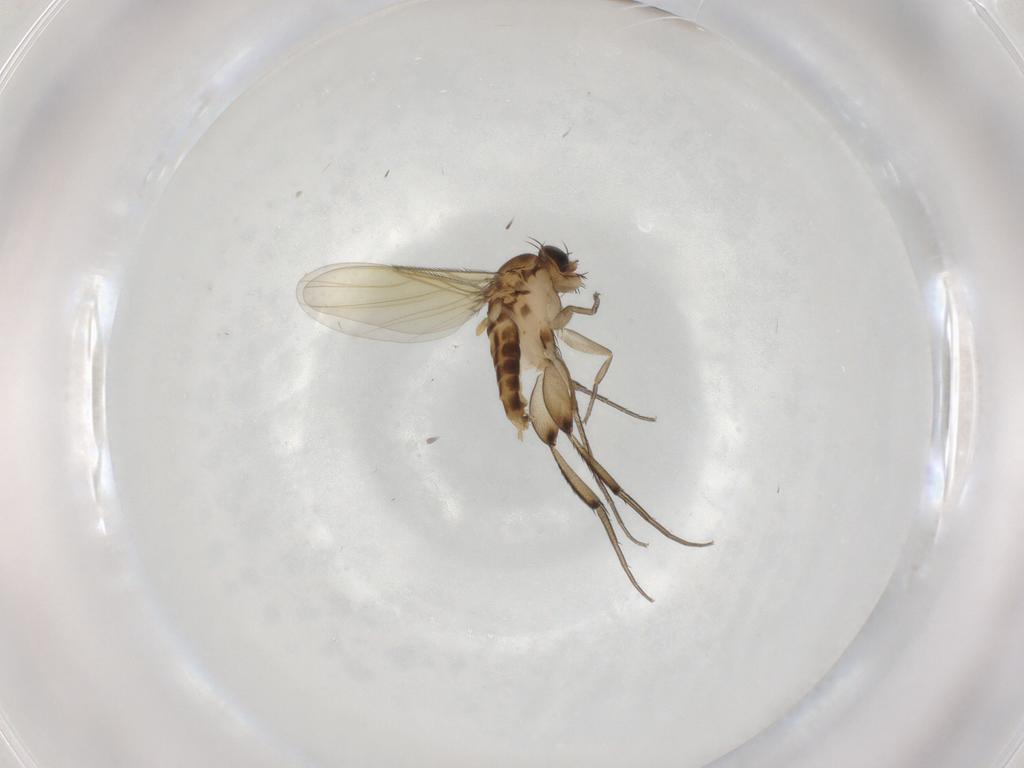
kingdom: Animalia
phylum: Arthropoda
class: Insecta
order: Diptera
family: Phoridae
